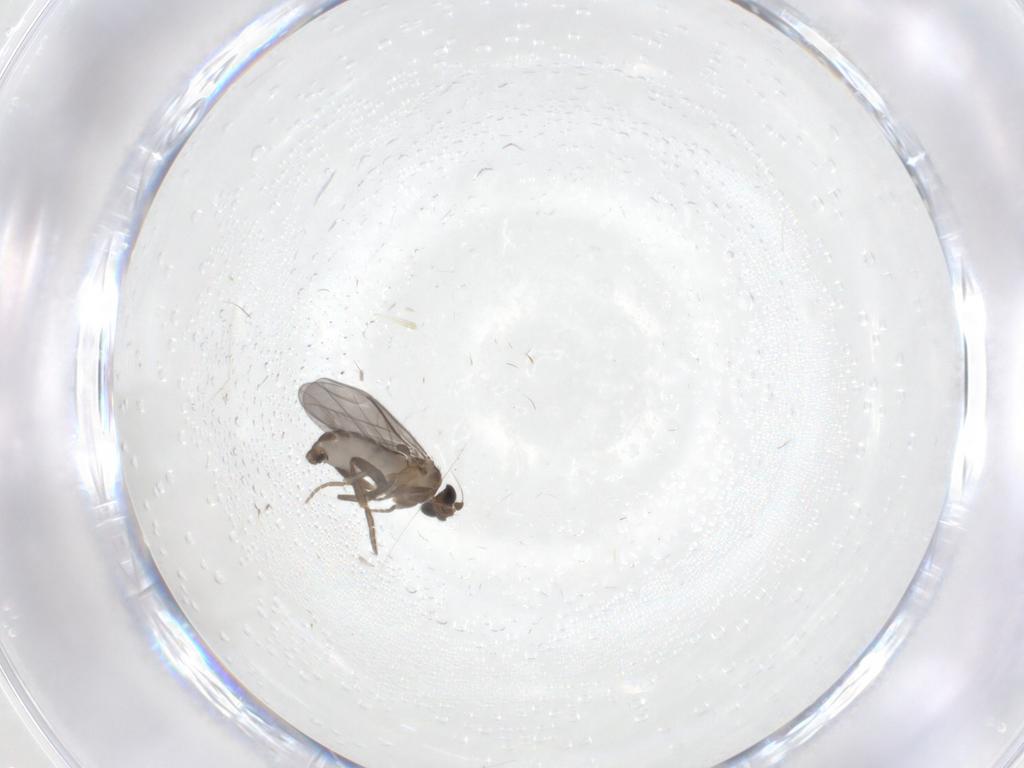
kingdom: Animalia
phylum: Arthropoda
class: Insecta
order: Diptera
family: Phoridae
